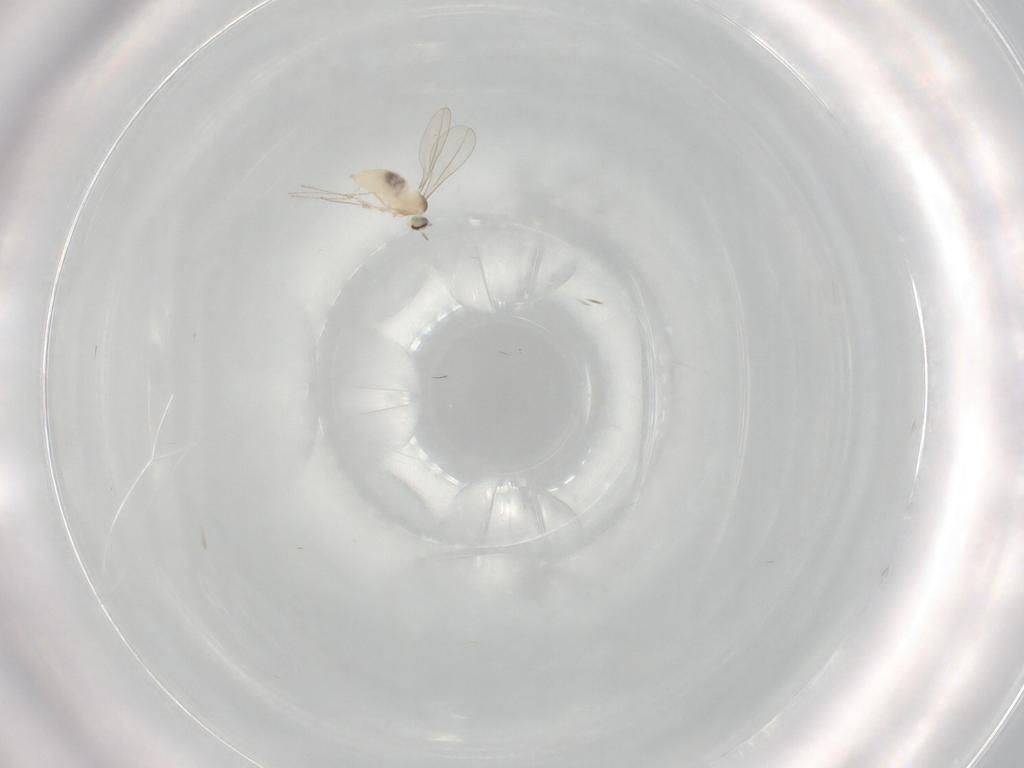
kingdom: Animalia
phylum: Arthropoda
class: Insecta
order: Diptera
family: Cecidomyiidae
